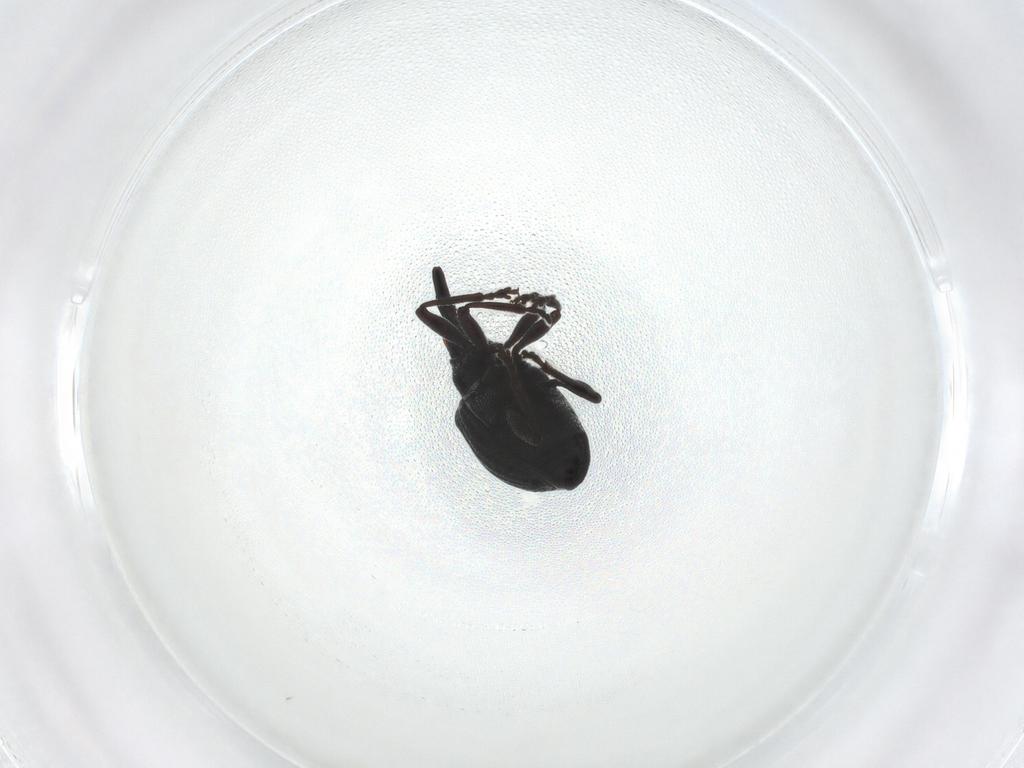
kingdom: Animalia
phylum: Arthropoda
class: Insecta
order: Coleoptera
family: Brentidae
